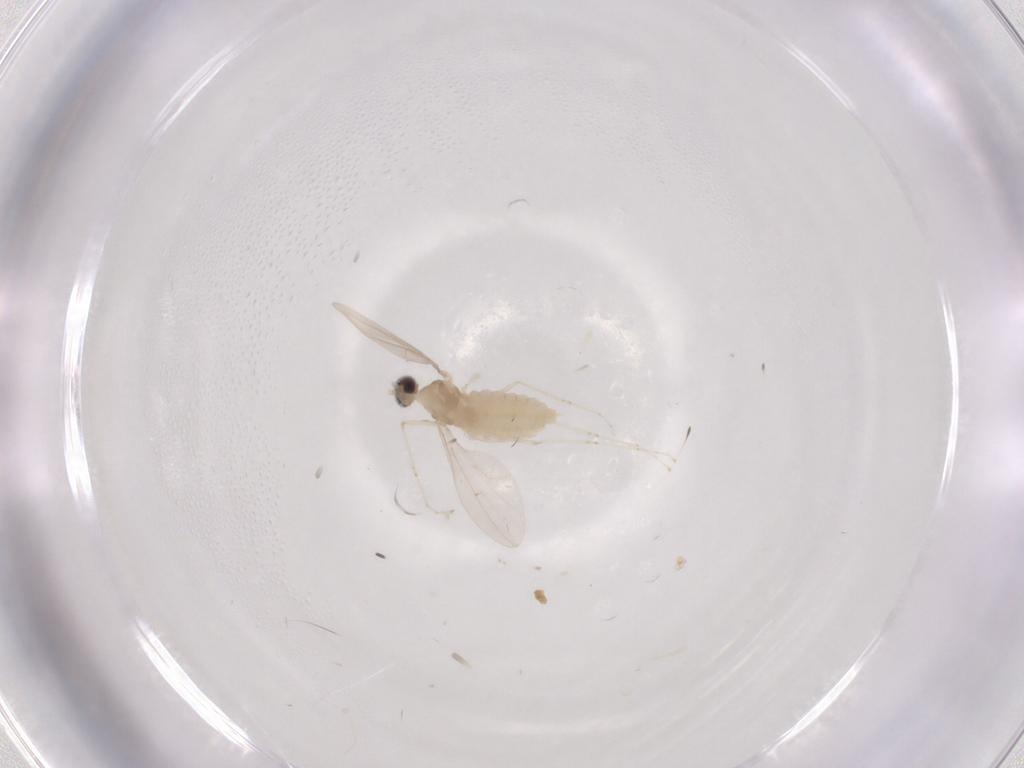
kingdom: Animalia
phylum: Arthropoda
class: Insecta
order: Diptera
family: Cecidomyiidae
